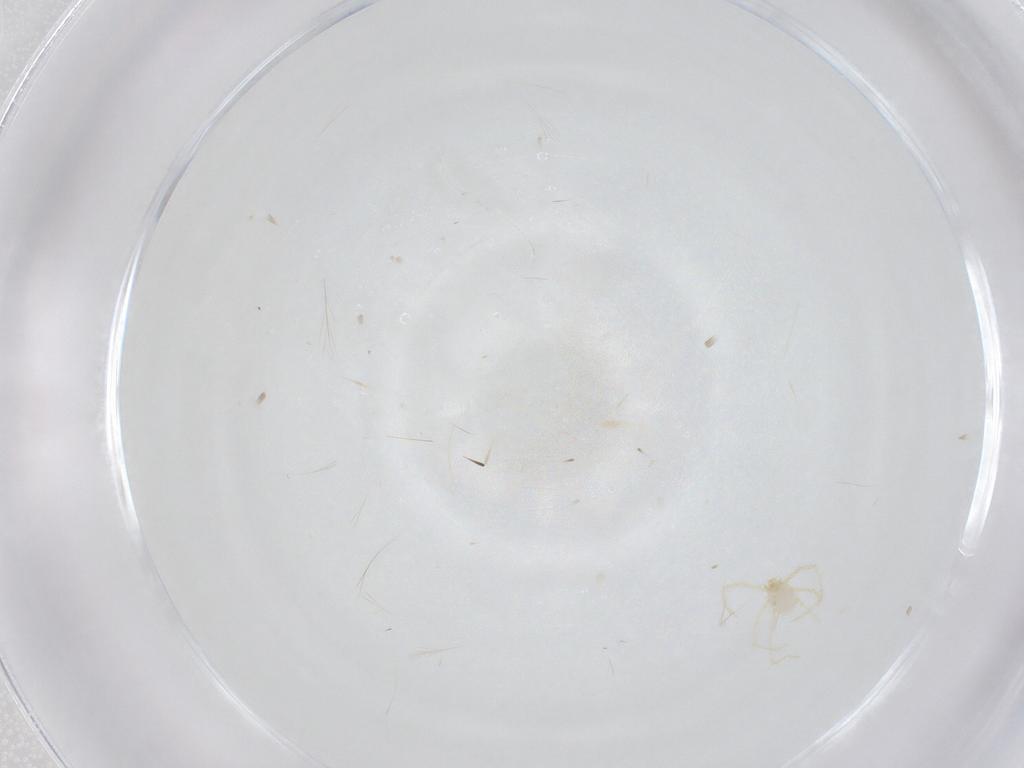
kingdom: Animalia
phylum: Arthropoda
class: Arachnida
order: Trombidiformes
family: Erythraeidae
